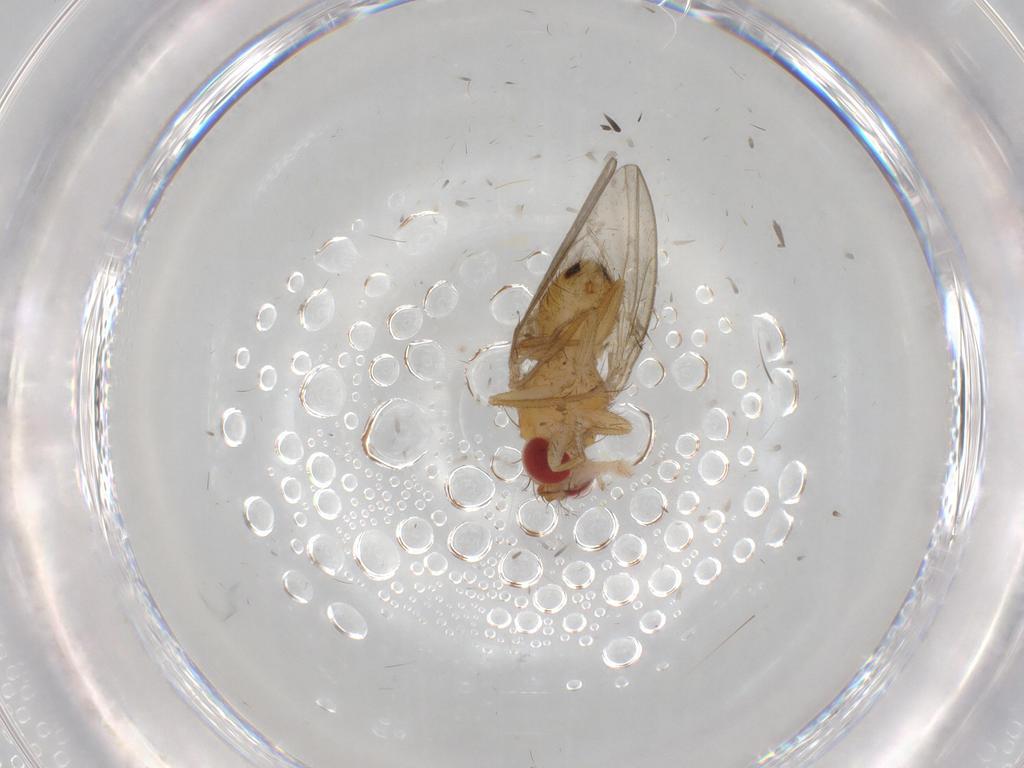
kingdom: Animalia
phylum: Arthropoda
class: Insecta
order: Diptera
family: Drosophilidae
